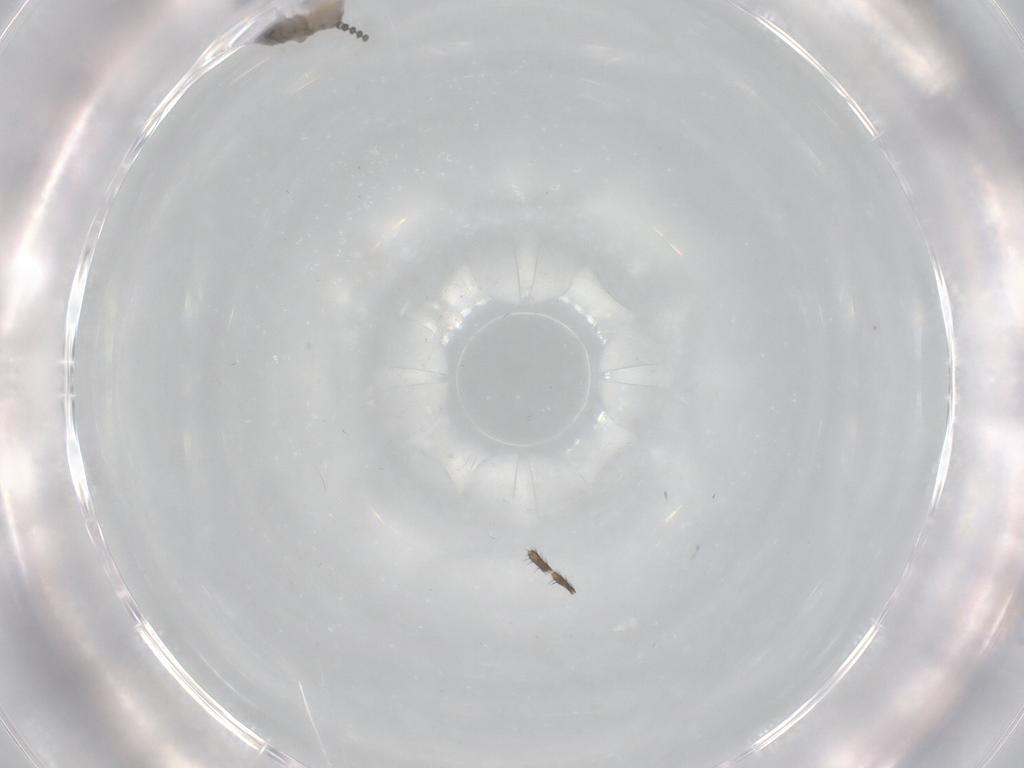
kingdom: Animalia
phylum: Arthropoda
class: Insecta
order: Diptera
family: Psychodidae
